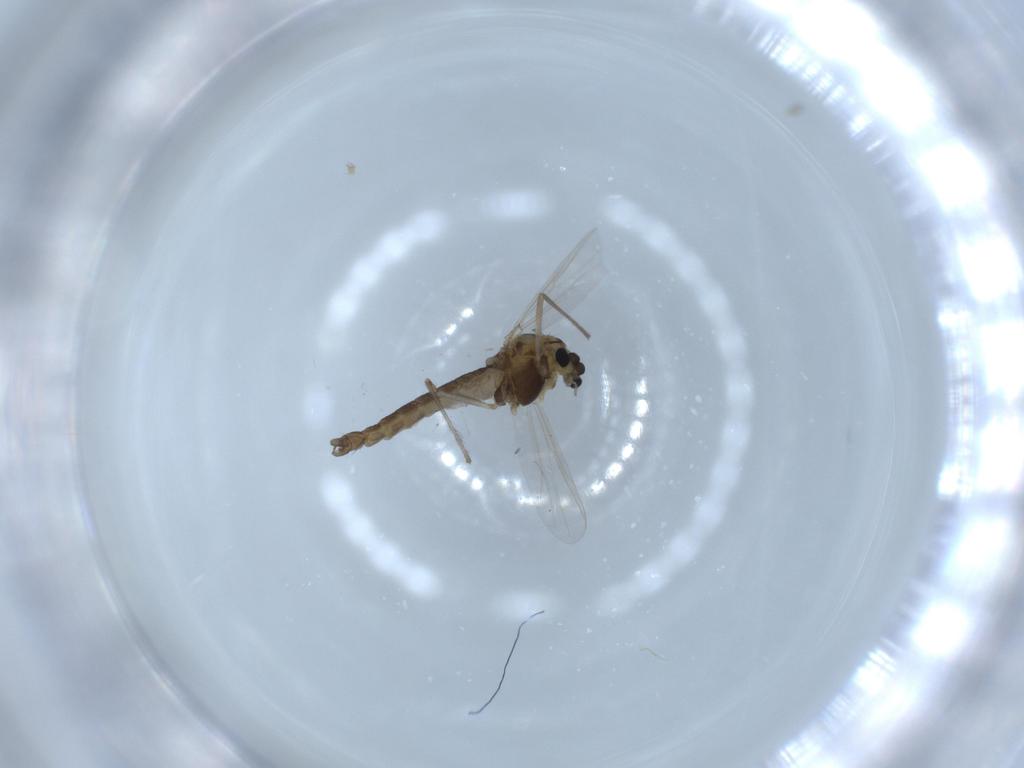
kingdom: Animalia
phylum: Arthropoda
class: Insecta
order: Diptera
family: Chironomidae
